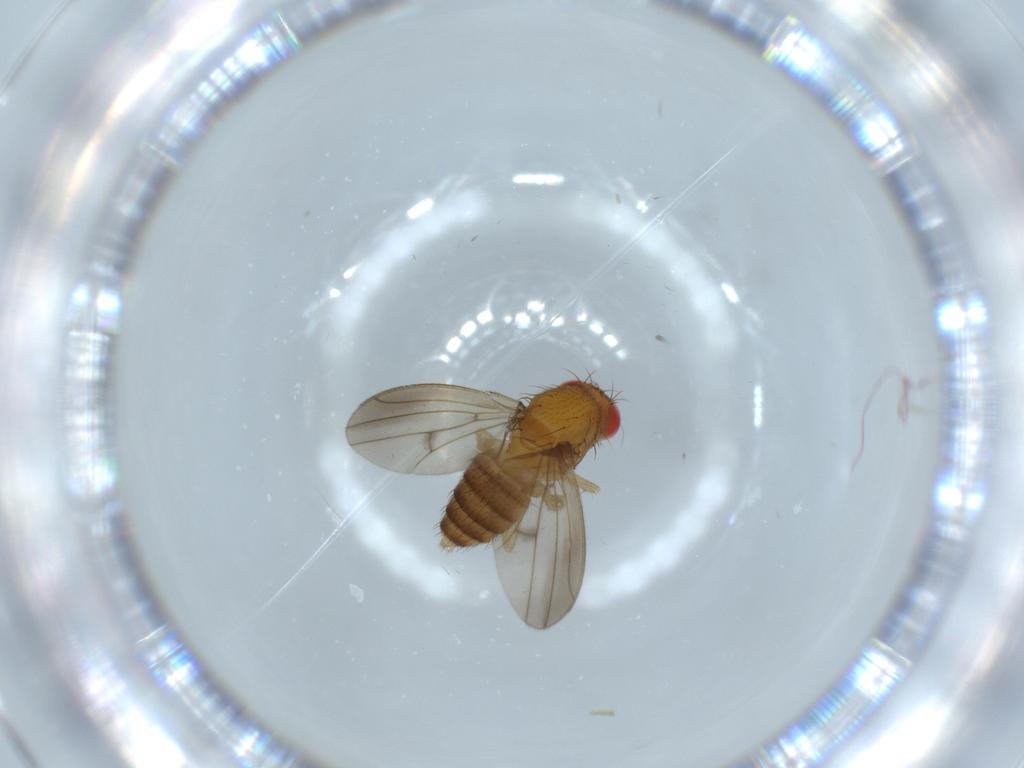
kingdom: Animalia
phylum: Arthropoda
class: Insecta
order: Diptera
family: Drosophilidae
